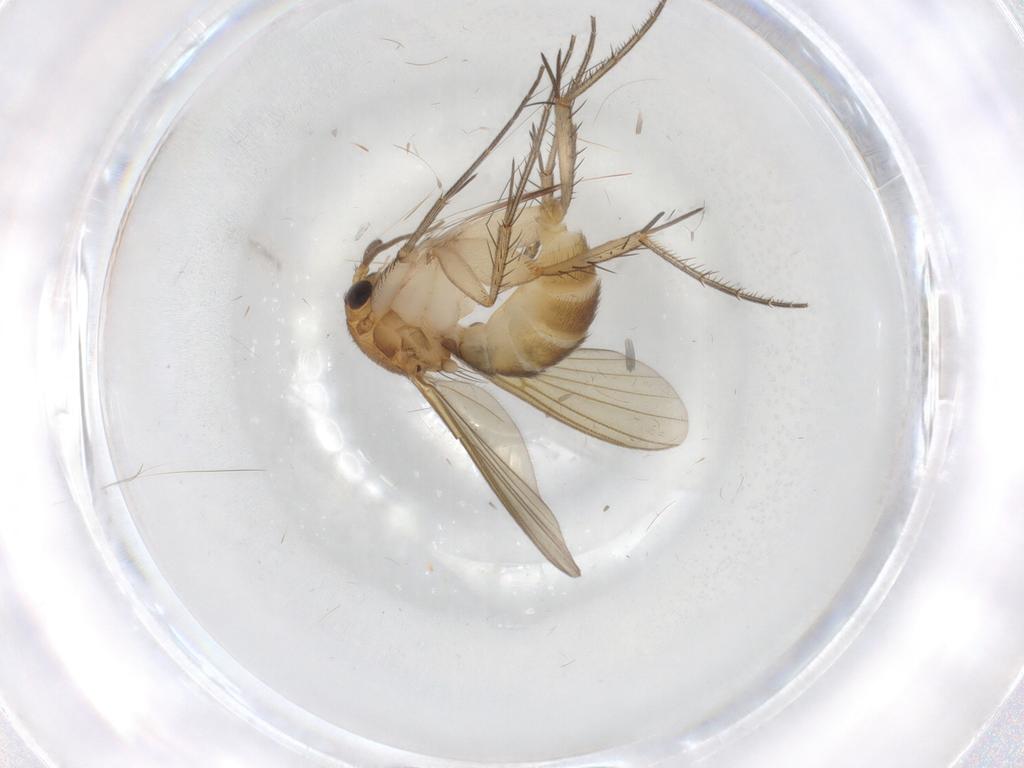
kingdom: Animalia
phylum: Arthropoda
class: Insecta
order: Diptera
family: Mycetophilidae
